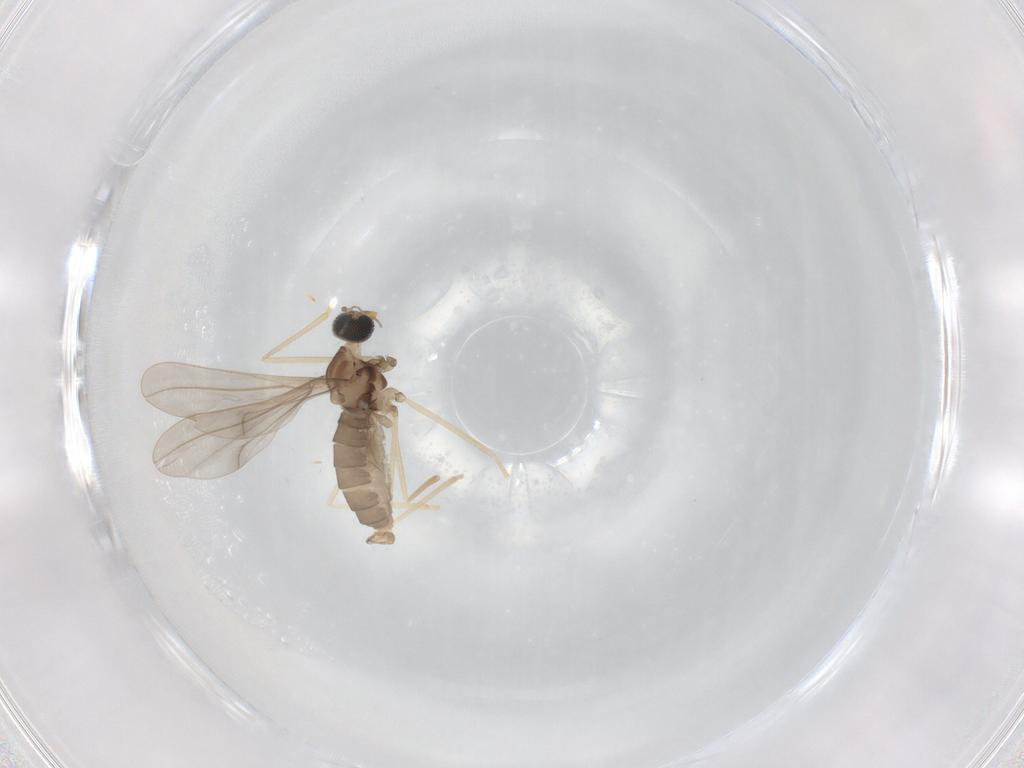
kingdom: Animalia
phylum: Arthropoda
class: Insecta
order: Diptera
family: Cecidomyiidae
